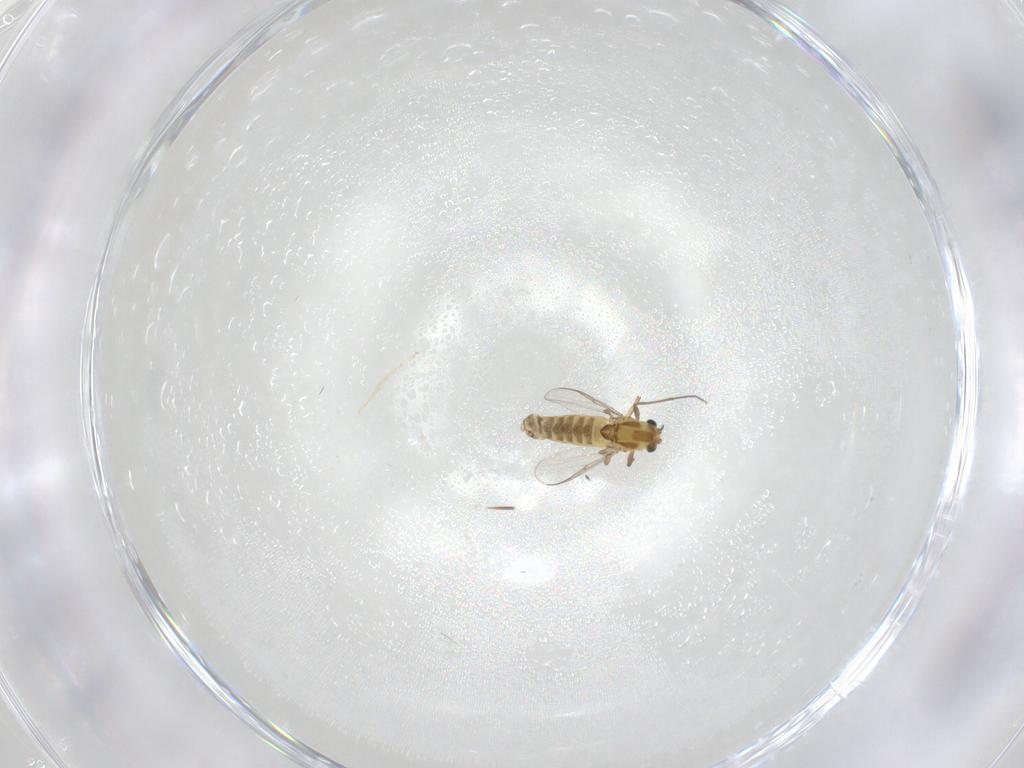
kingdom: Animalia
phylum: Arthropoda
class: Insecta
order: Diptera
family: Chironomidae
